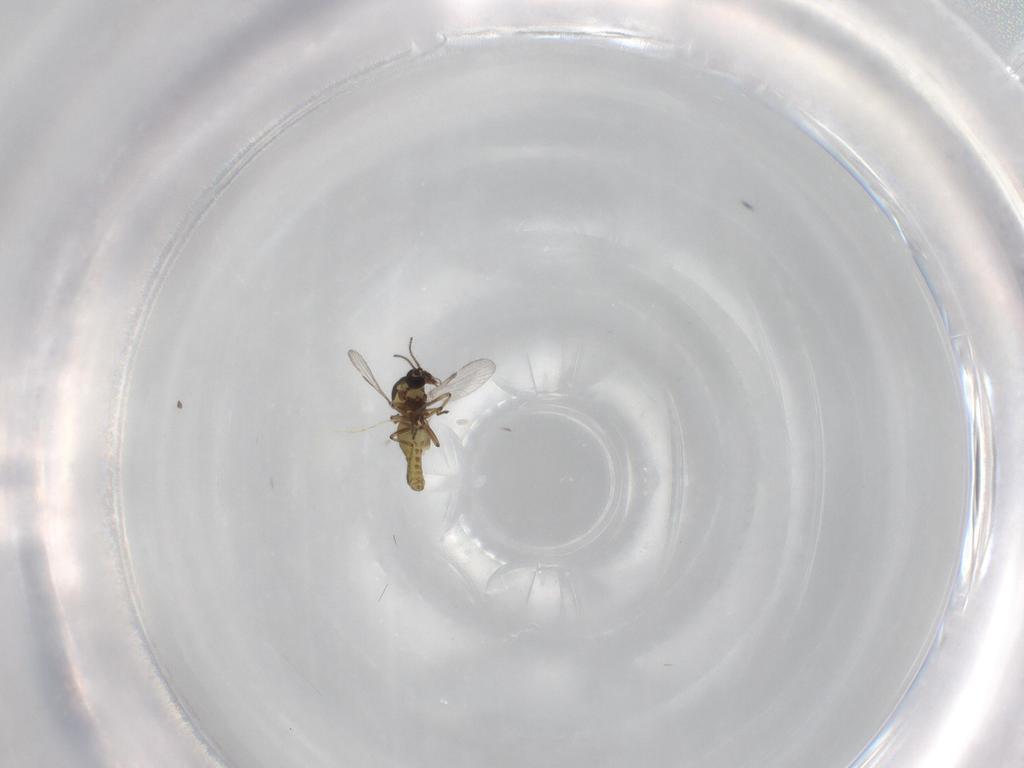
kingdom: Animalia
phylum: Arthropoda
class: Insecta
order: Diptera
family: Ceratopogonidae
